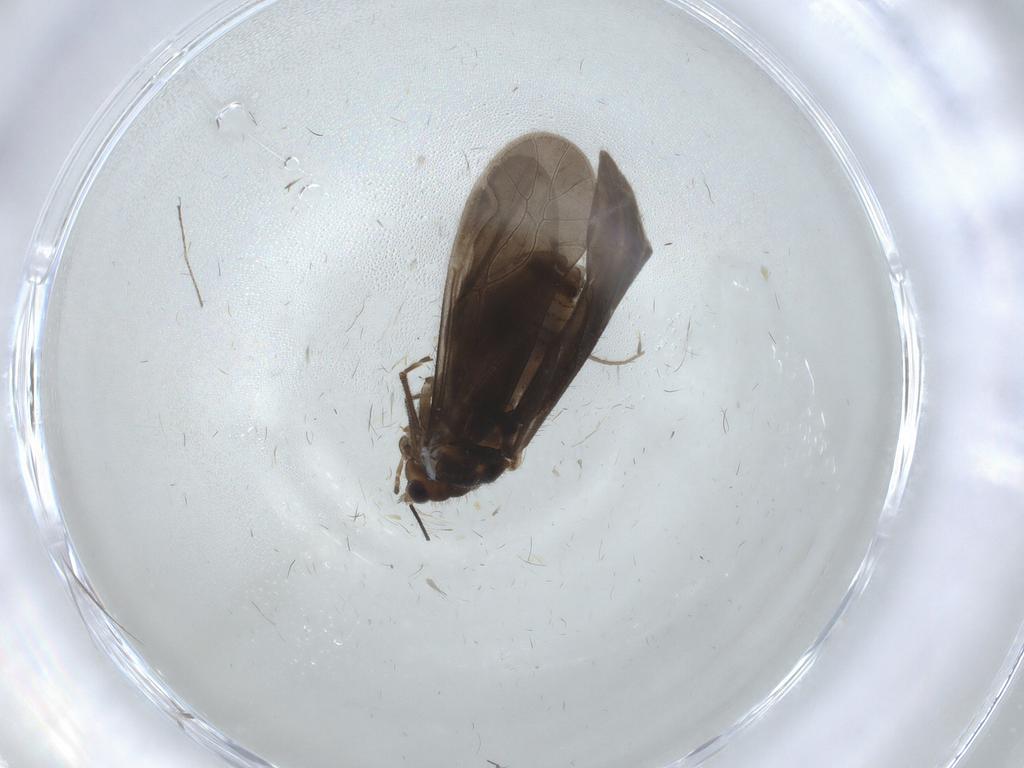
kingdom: Animalia
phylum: Arthropoda
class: Insecta
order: Trichoptera
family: Hydropsychidae
